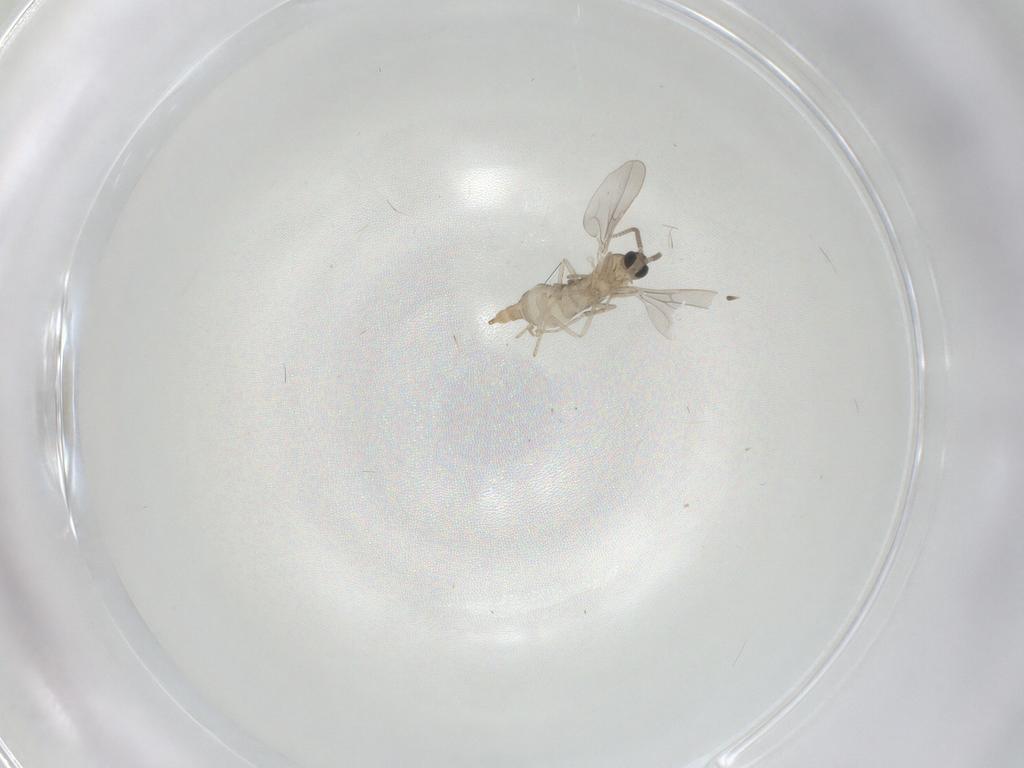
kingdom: Animalia
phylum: Arthropoda
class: Insecta
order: Diptera
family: Cecidomyiidae
